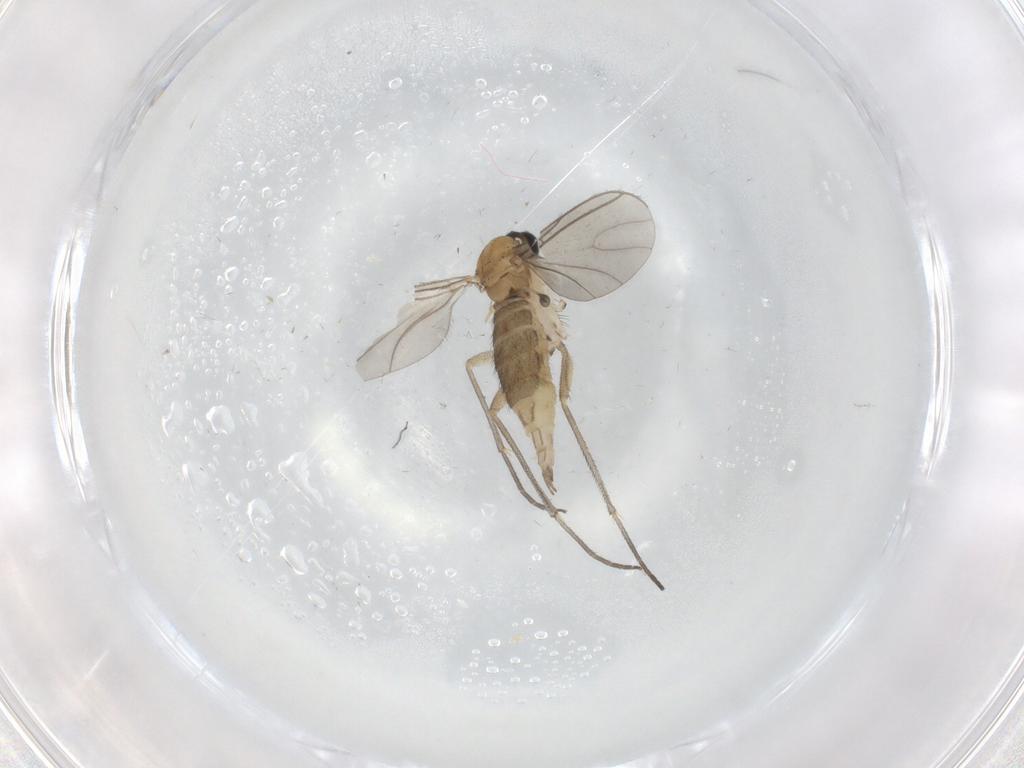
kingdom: Animalia
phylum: Arthropoda
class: Insecta
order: Diptera
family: Cecidomyiidae
